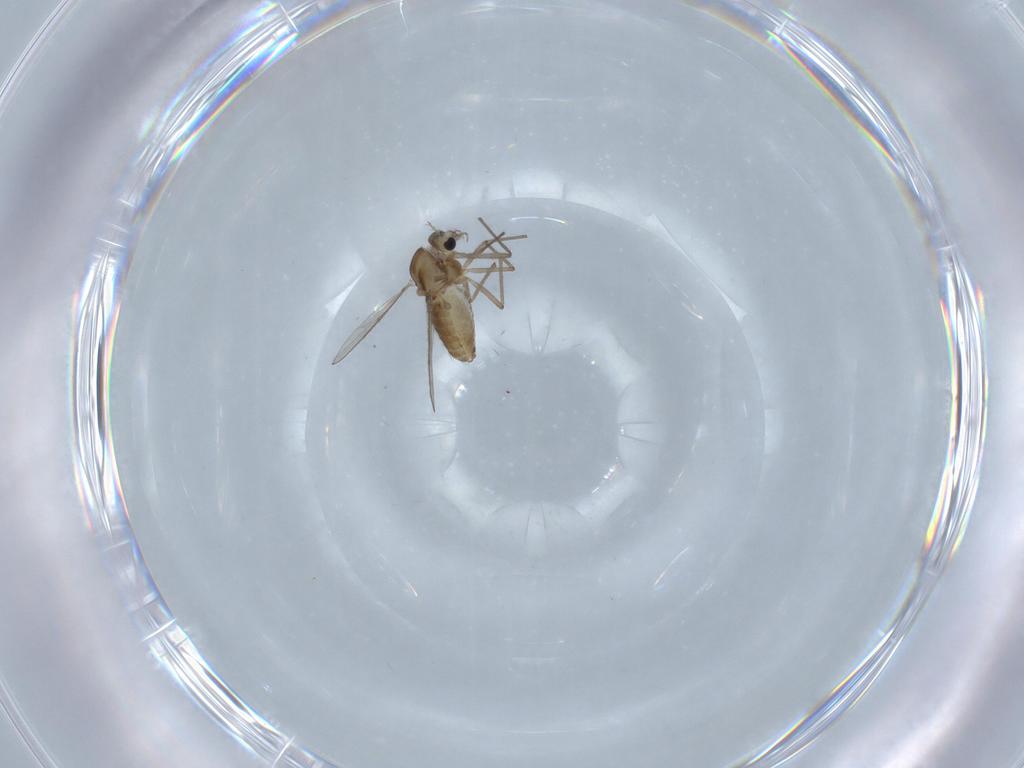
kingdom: Animalia
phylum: Arthropoda
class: Insecta
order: Diptera
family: Chironomidae
